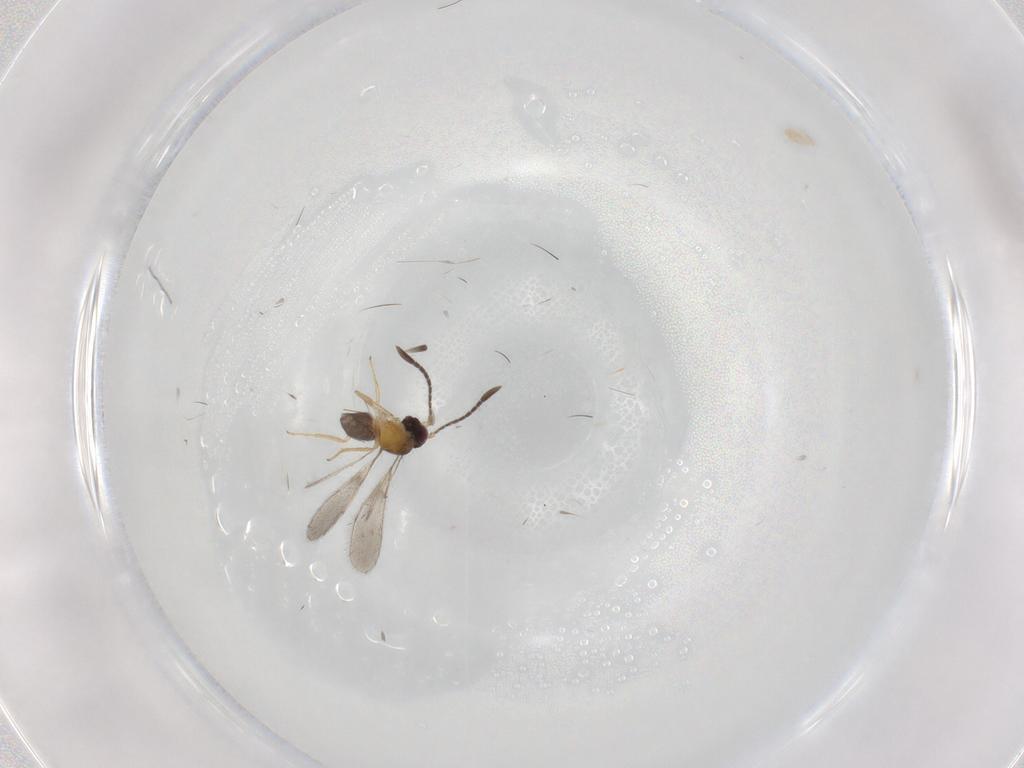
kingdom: Animalia
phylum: Arthropoda
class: Insecta
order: Hymenoptera
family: Mymaridae
